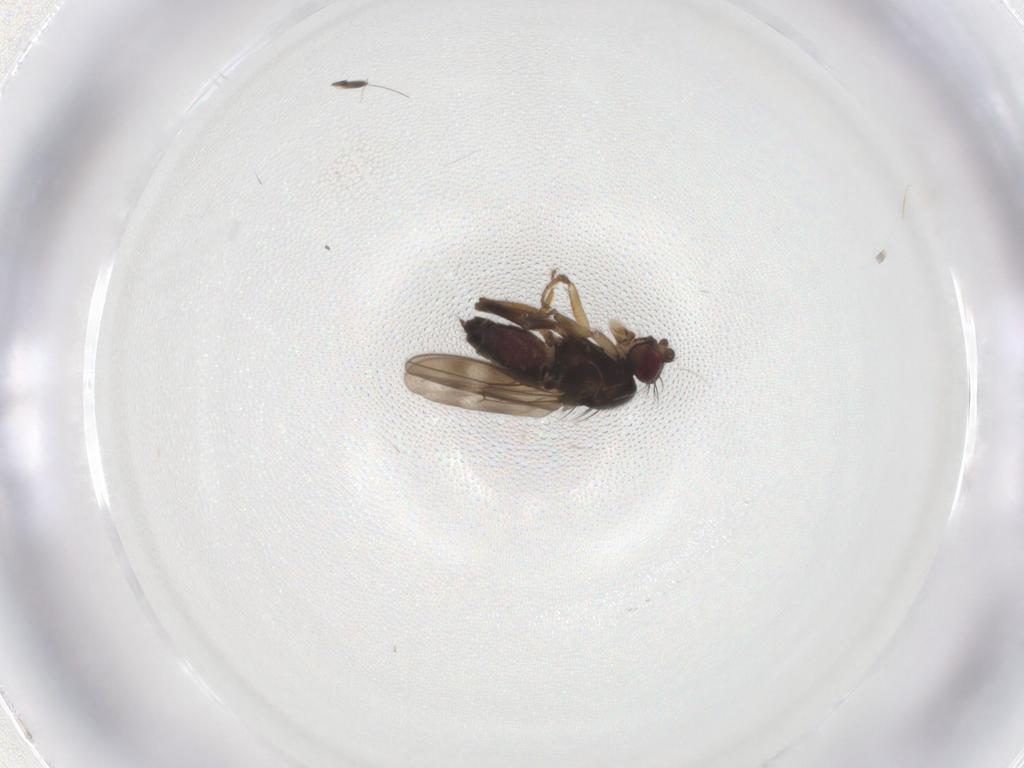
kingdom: Animalia
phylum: Arthropoda
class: Insecta
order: Diptera
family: Sphaeroceridae
